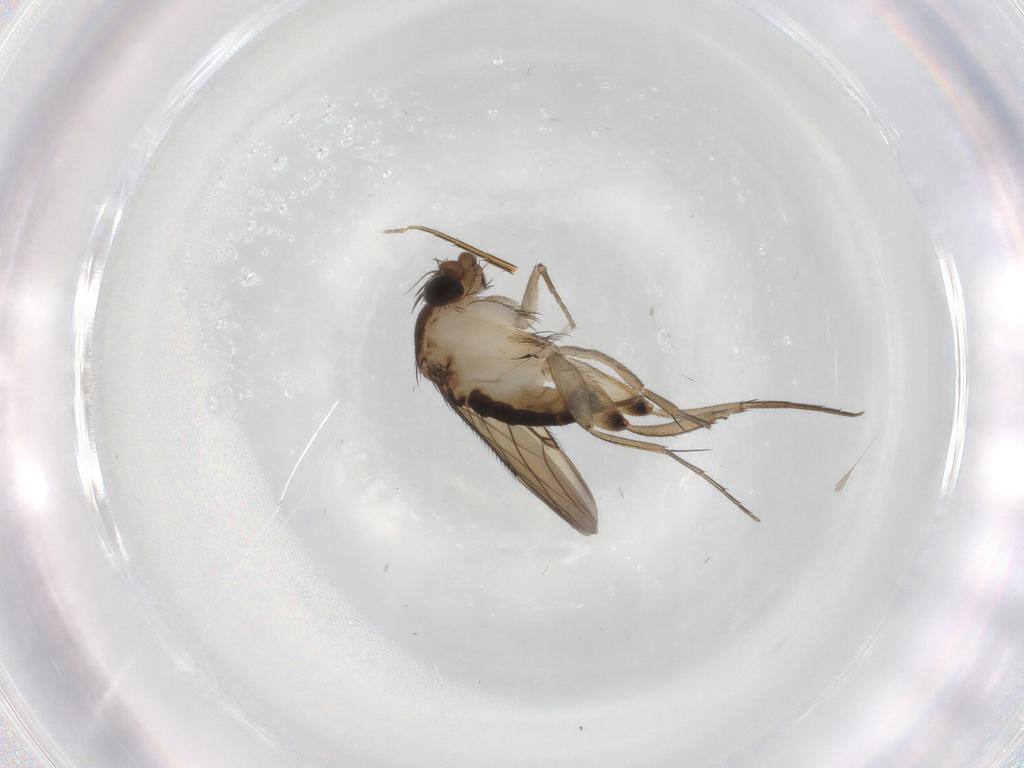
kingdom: Animalia
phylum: Arthropoda
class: Insecta
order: Diptera
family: Phoridae
